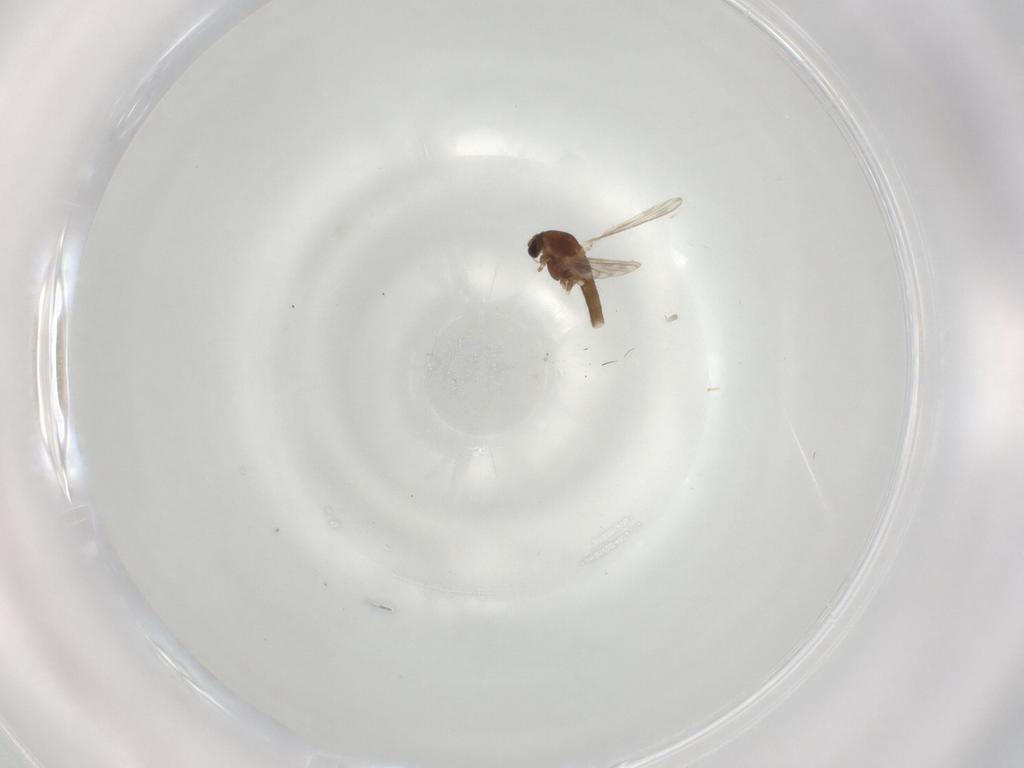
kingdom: Animalia
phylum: Arthropoda
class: Insecta
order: Diptera
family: Chironomidae
